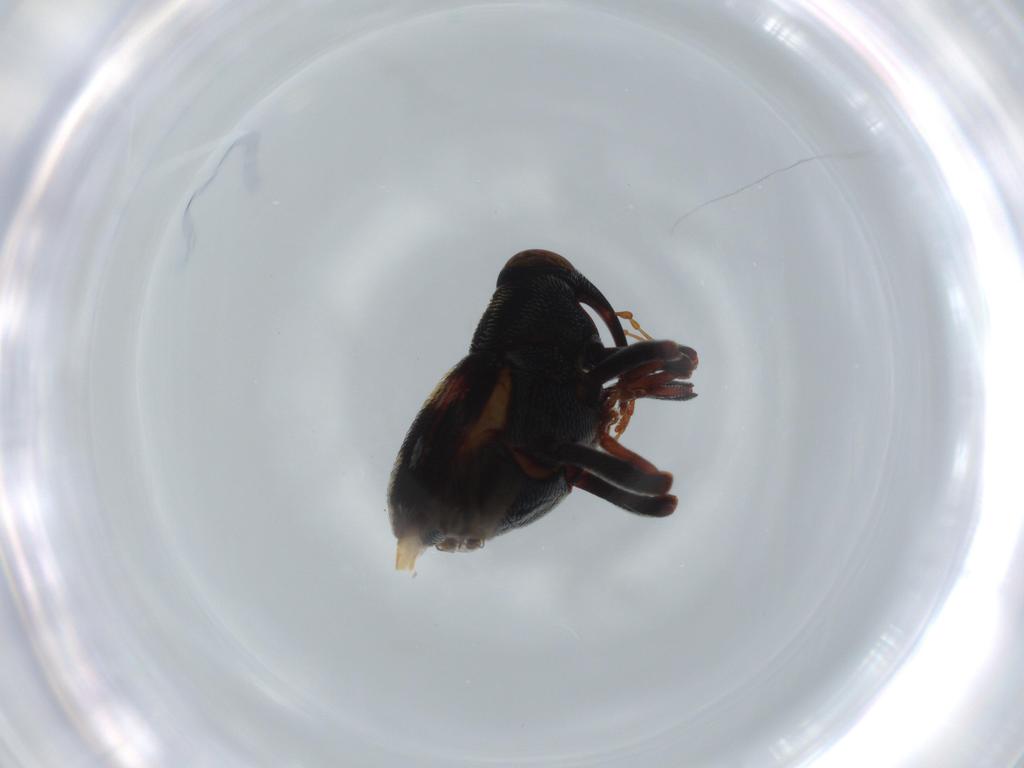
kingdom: Animalia
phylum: Arthropoda
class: Insecta
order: Coleoptera
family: Curculionidae
